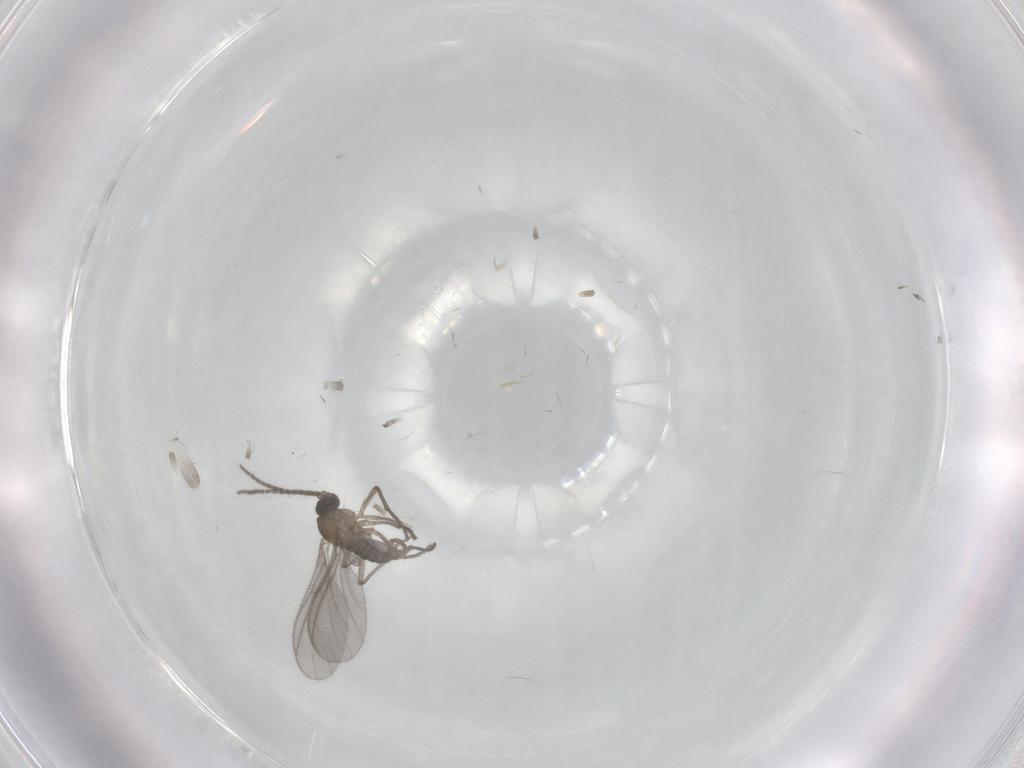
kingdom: Animalia
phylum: Arthropoda
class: Insecta
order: Diptera
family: Sciaridae
